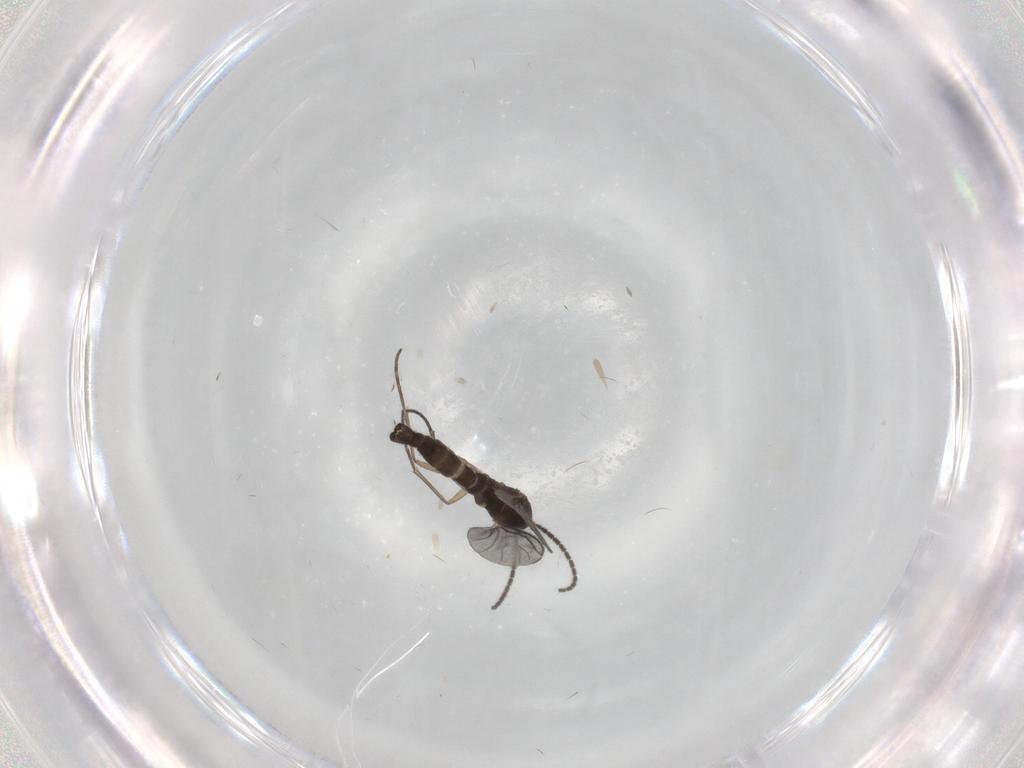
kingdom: Animalia
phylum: Arthropoda
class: Insecta
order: Diptera
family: Sciaridae
